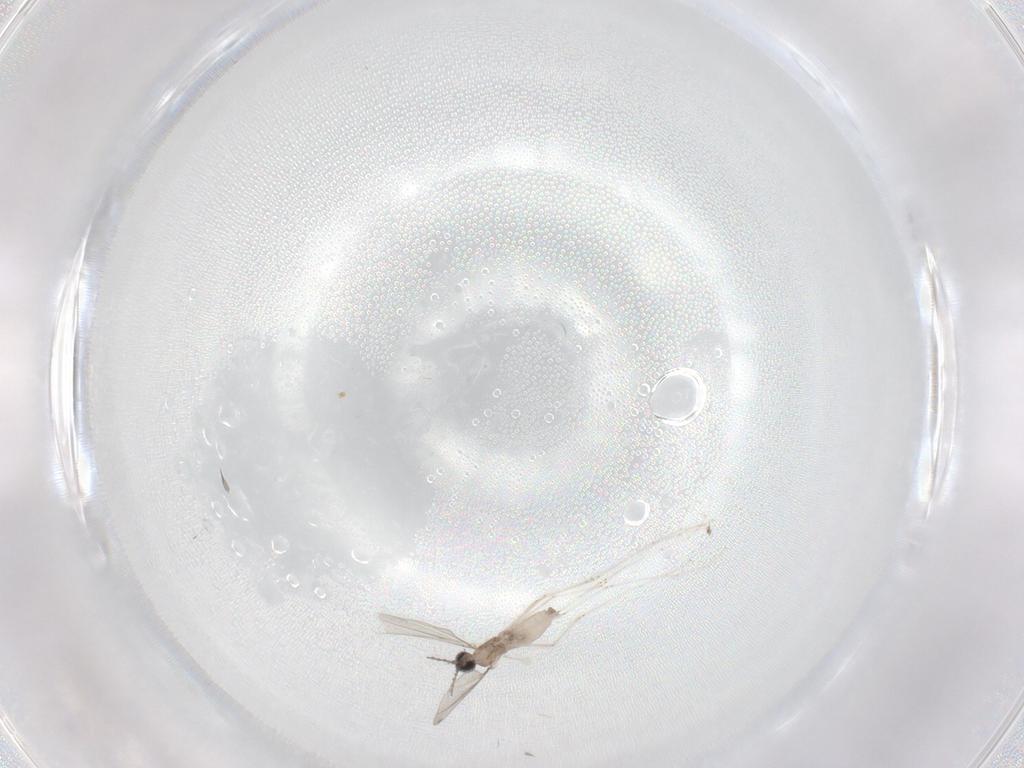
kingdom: Animalia
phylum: Arthropoda
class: Insecta
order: Diptera
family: Cecidomyiidae
